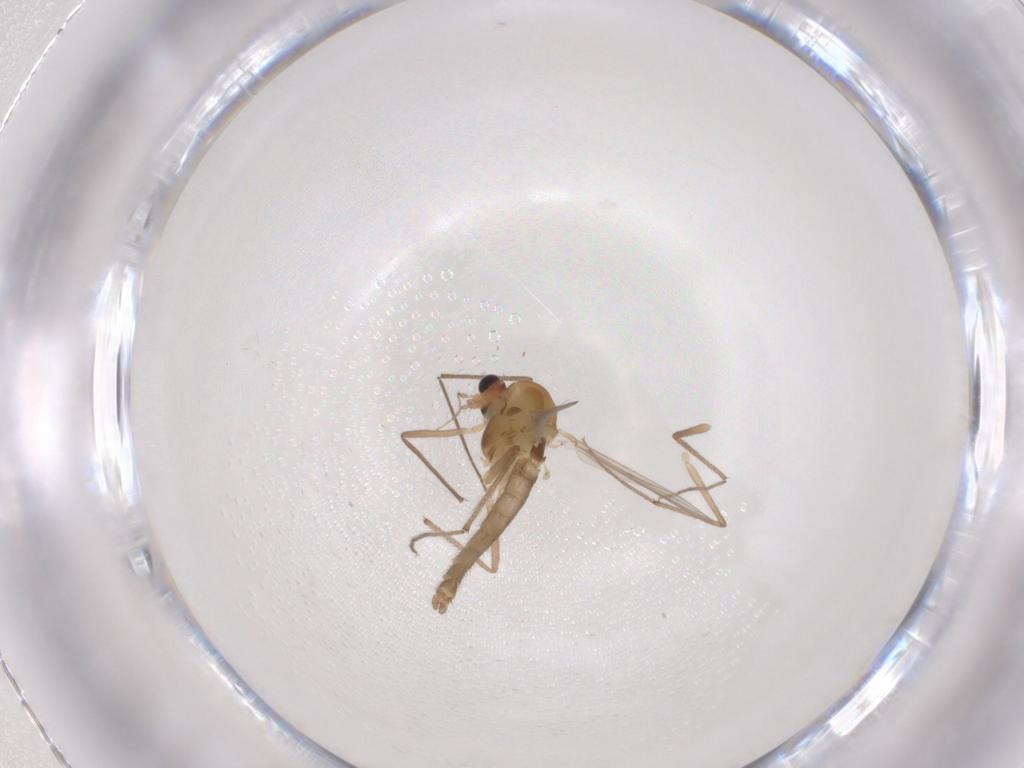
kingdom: Animalia
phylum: Arthropoda
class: Insecta
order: Diptera
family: Chironomidae
